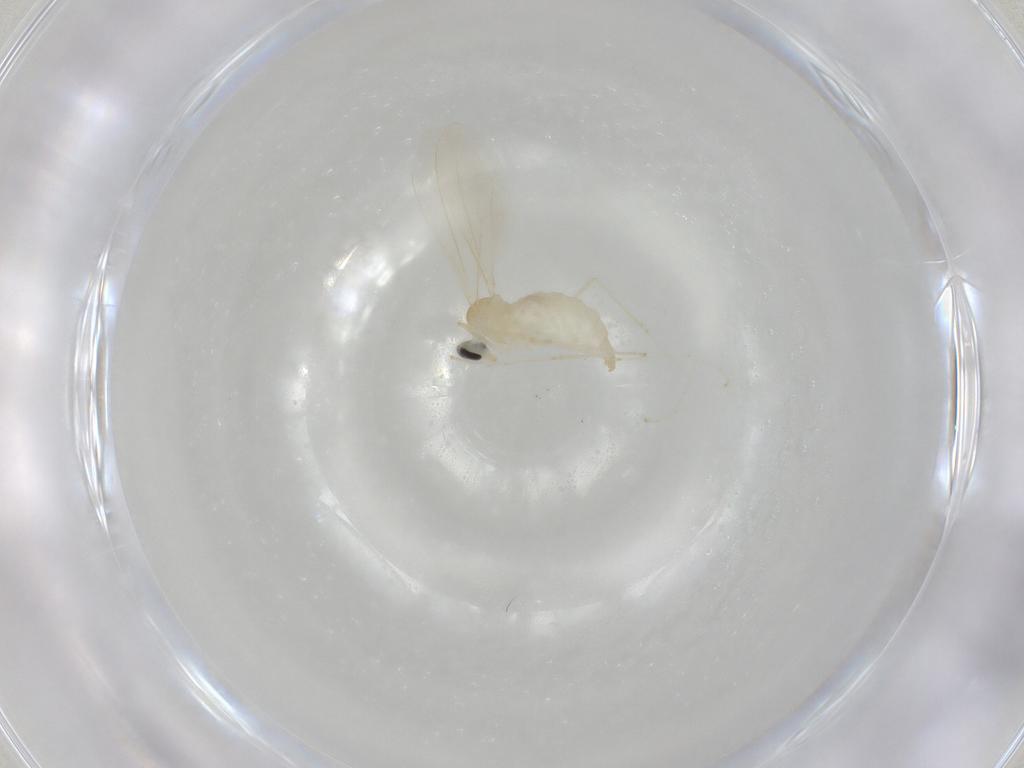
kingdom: Animalia
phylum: Arthropoda
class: Insecta
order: Diptera
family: Cecidomyiidae
